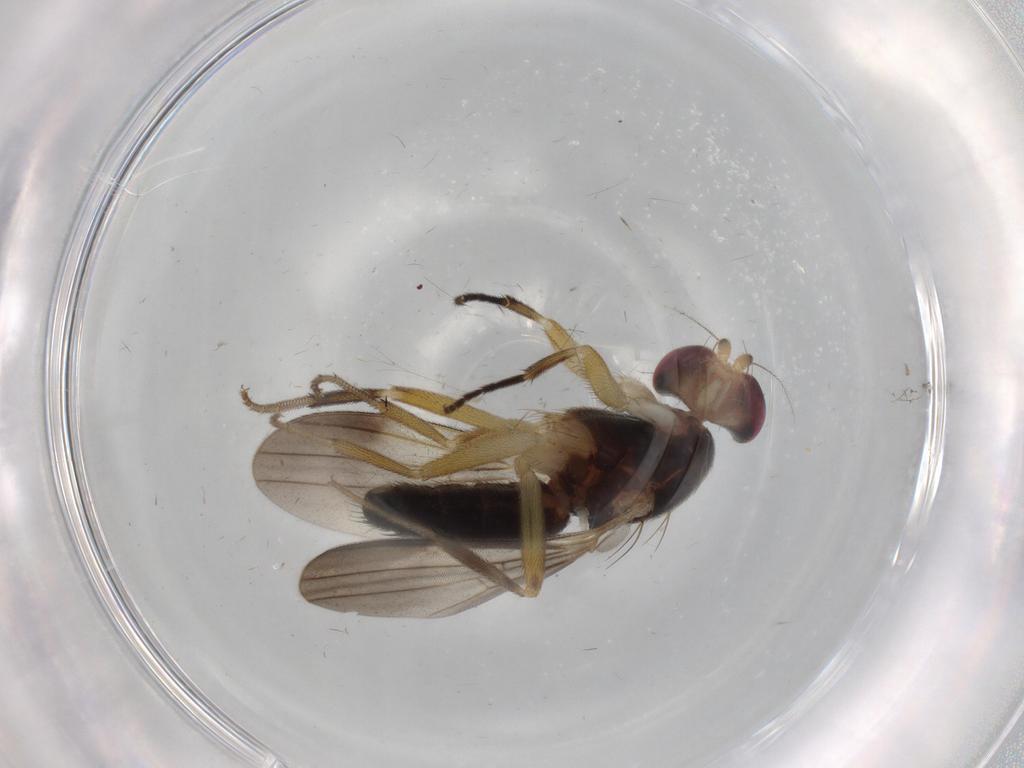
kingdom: Animalia
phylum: Arthropoda
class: Insecta
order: Diptera
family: Clusiidae
